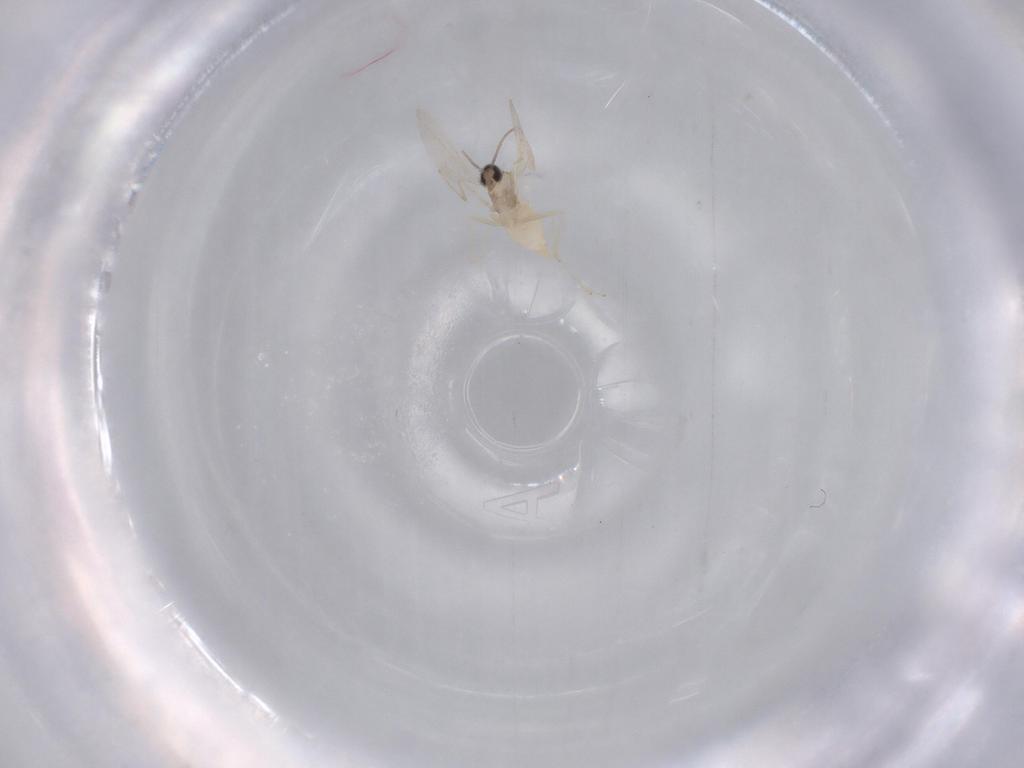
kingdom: Animalia
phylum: Arthropoda
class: Insecta
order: Diptera
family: Cecidomyiidae
